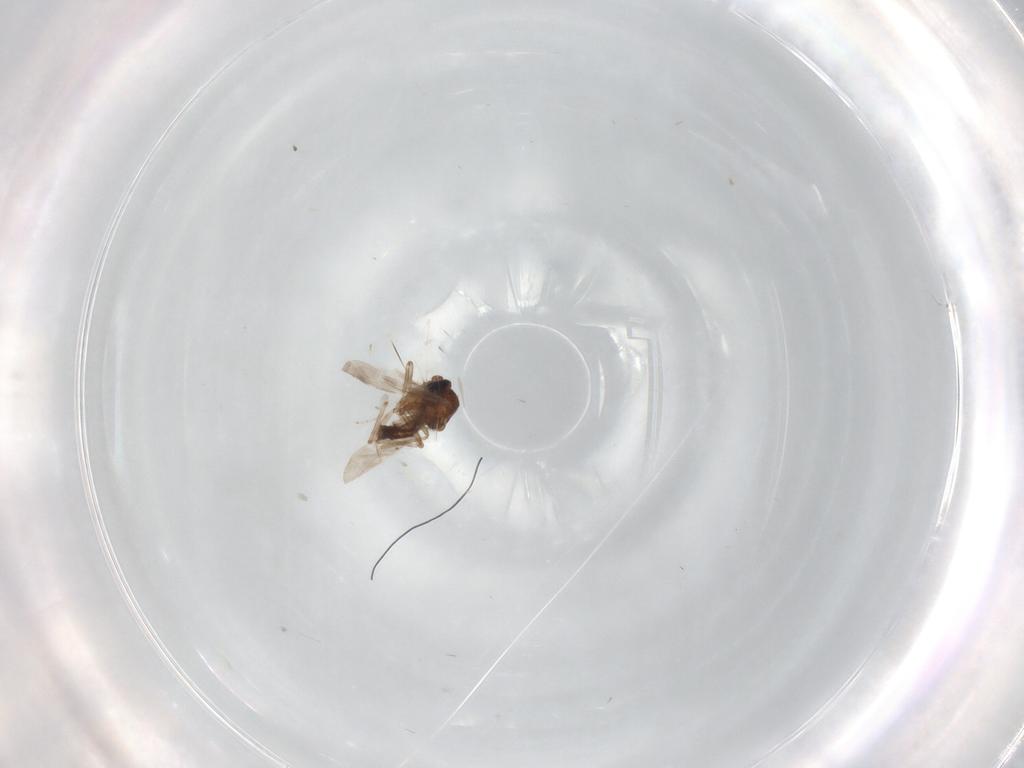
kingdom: Animalia
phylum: Arthropoda
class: Insecta
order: Diptera
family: Ceratopogonidae
